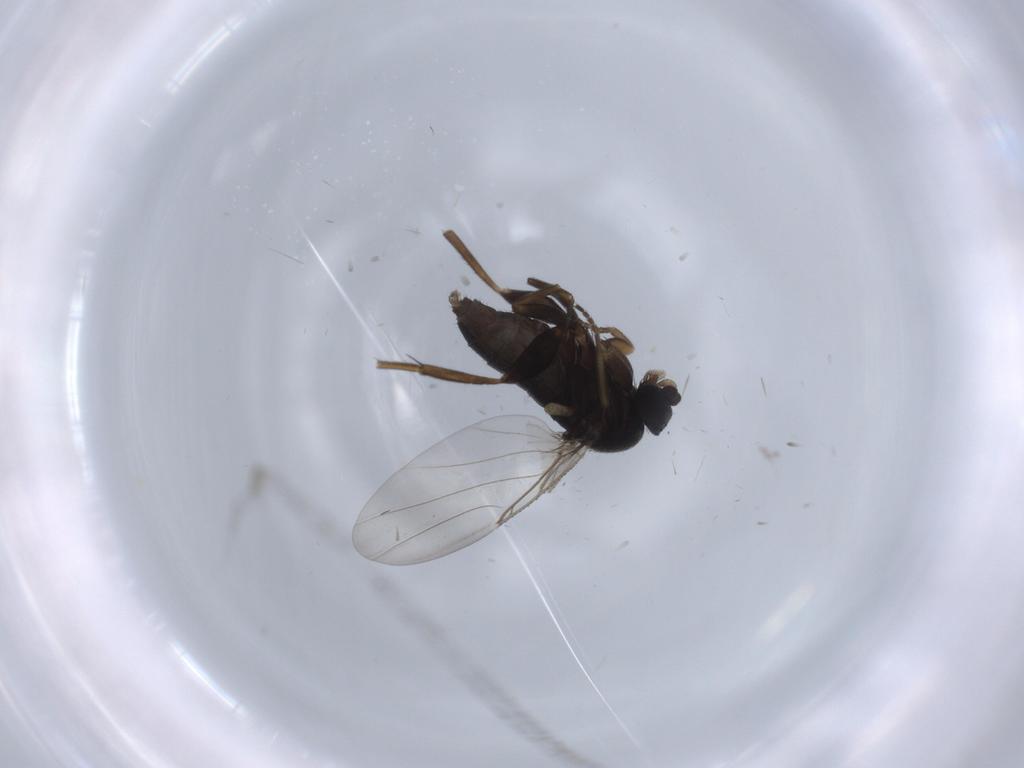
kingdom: Animalia
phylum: Arthropoda
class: Insecta
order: Diptera
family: Phoridae
